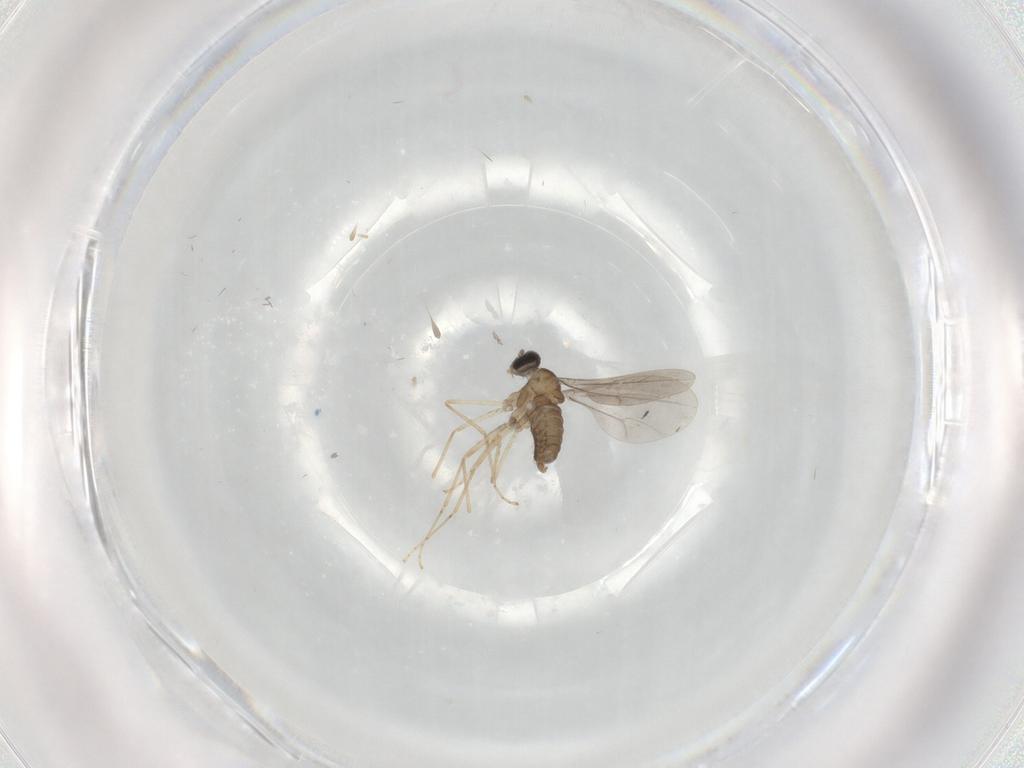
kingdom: Animalia
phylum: Arthropoda
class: Insecta
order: Diptera
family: Cecidomyiidae
